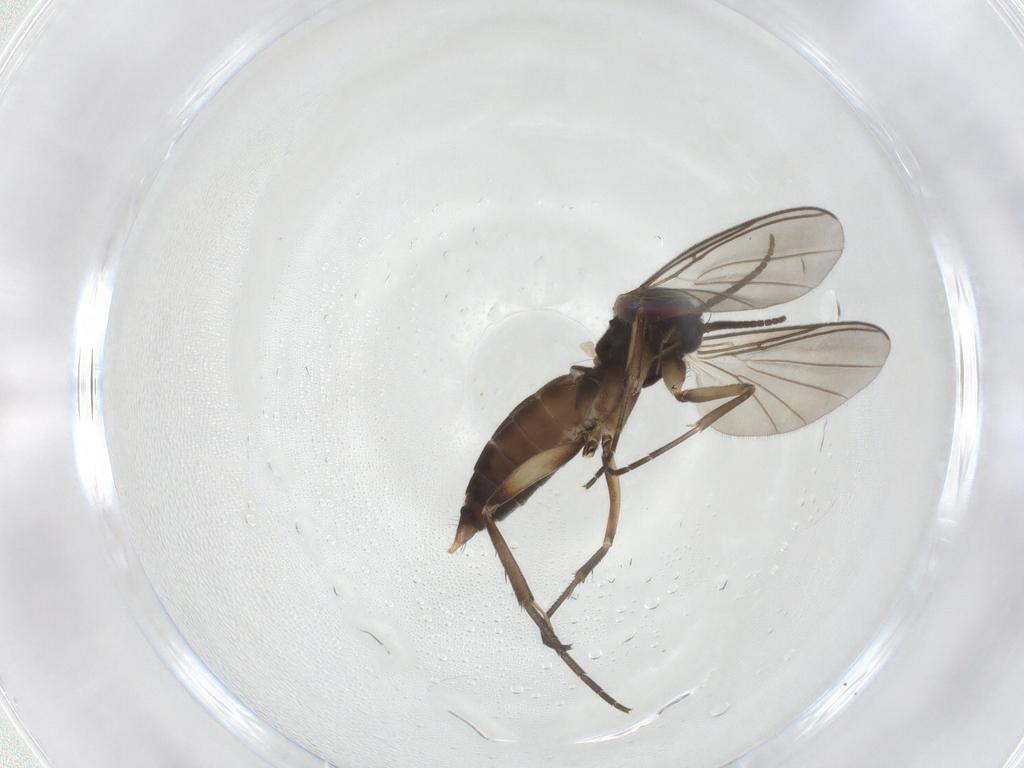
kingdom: Animalia
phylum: Arthropoda
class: Insecta
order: Diptera
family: Mycetophilidae
